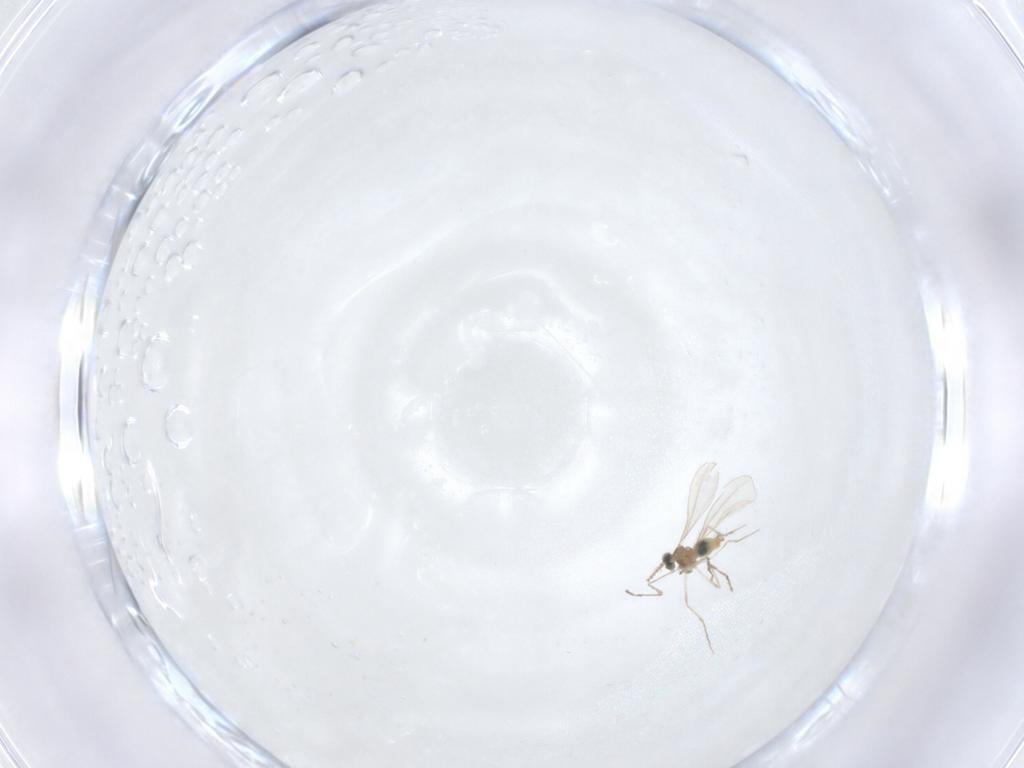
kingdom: Animalia
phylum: Arthropoda
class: Insecta
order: Diptera
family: Cecidomyiidae
